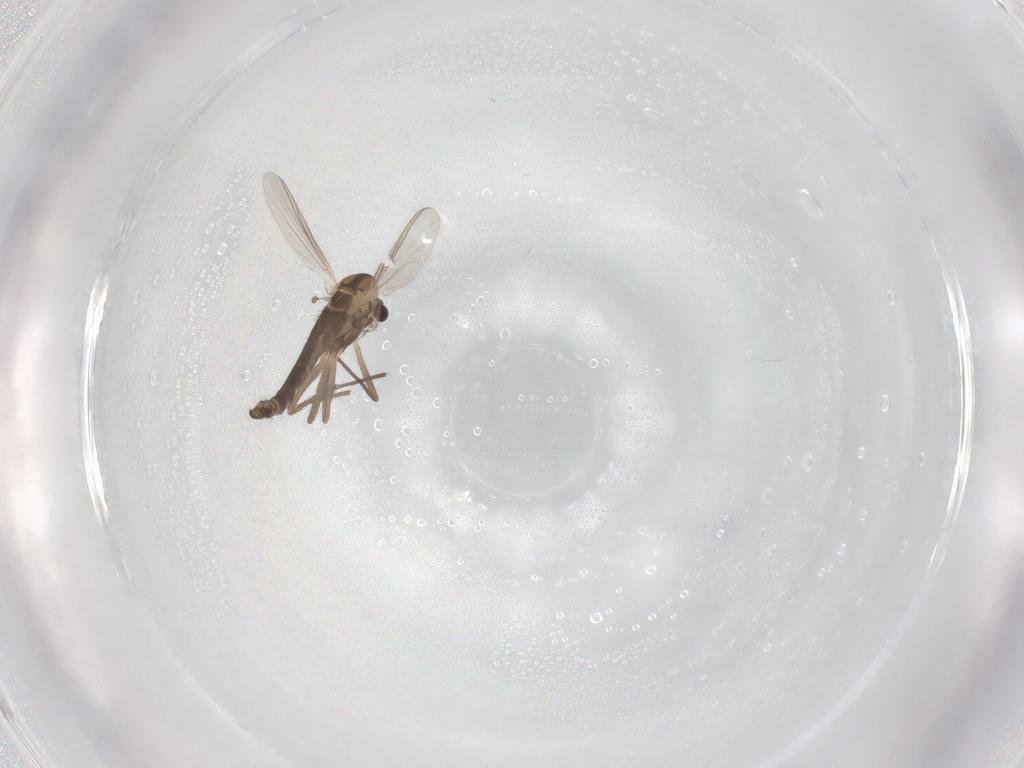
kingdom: Animalia
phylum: Arthropoda
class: Insecta
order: Diptera
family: Chironomidae
